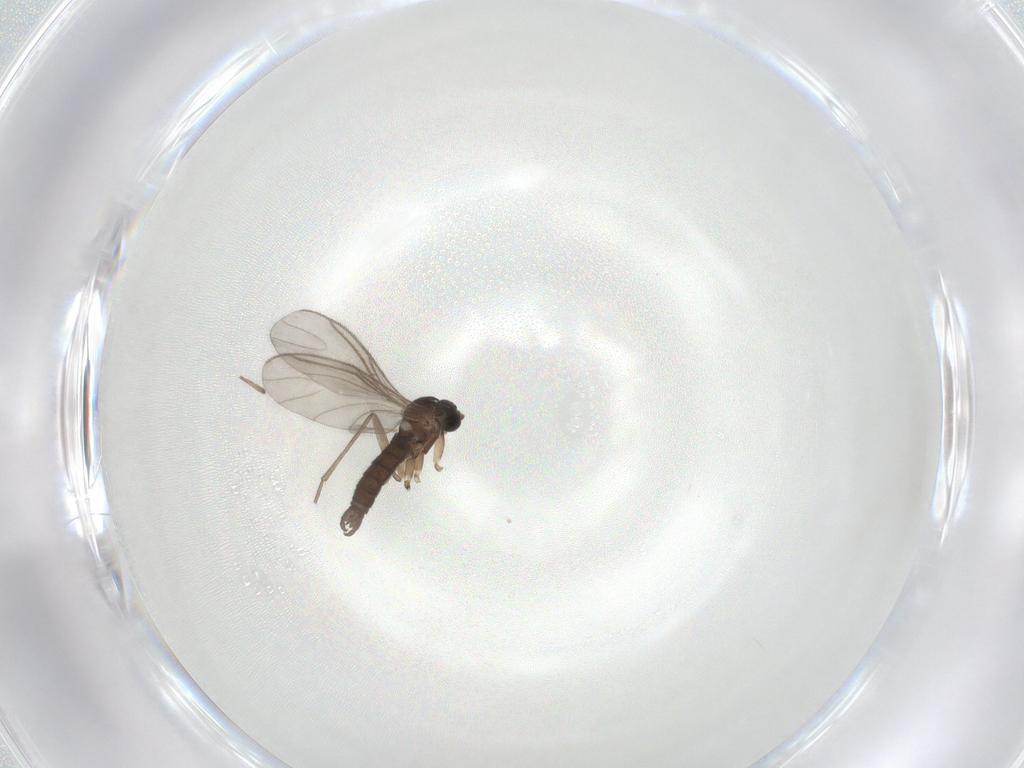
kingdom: Animalia
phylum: Arthropoda
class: Insecta
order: Diptera
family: Sciaridae
